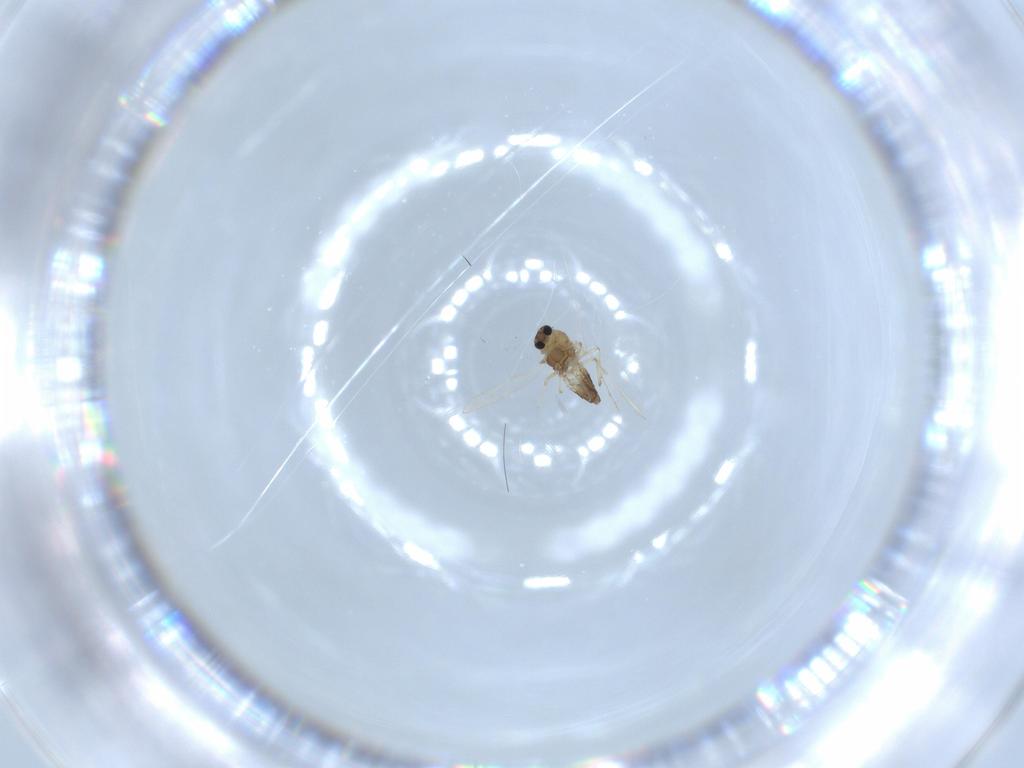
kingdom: Animalia
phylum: Arthropoda
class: Insecta
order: Diptera
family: Chironomidae
